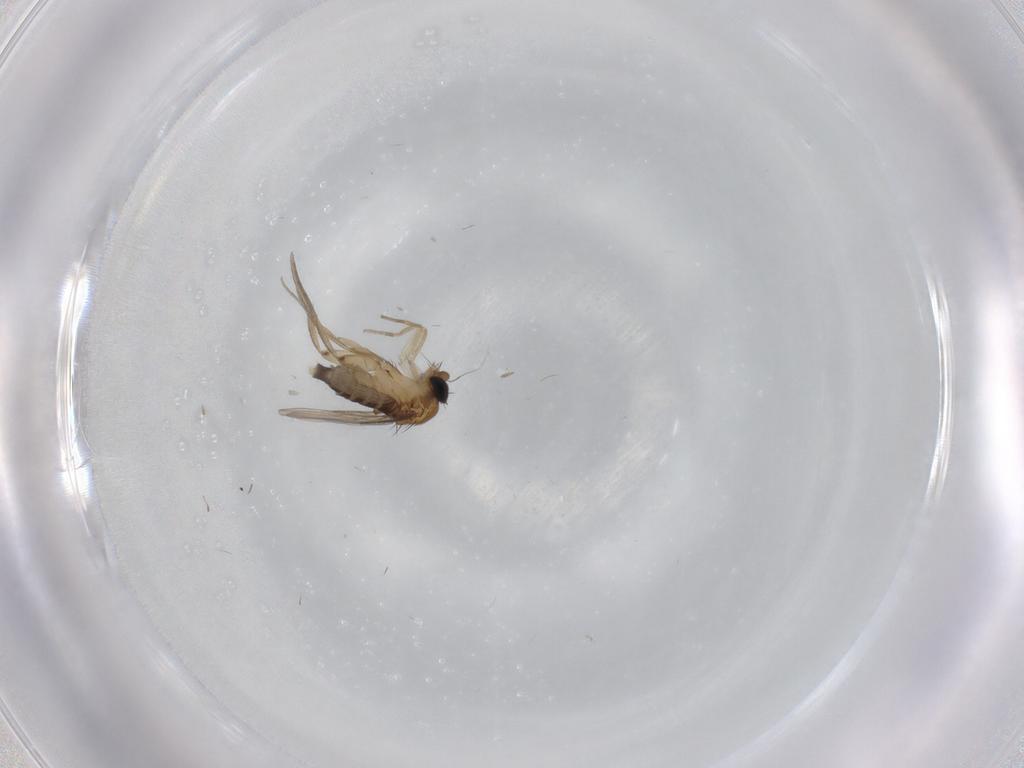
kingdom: Animalia
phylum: Arthropoda
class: Insecta
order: Diptera
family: Phoridae
